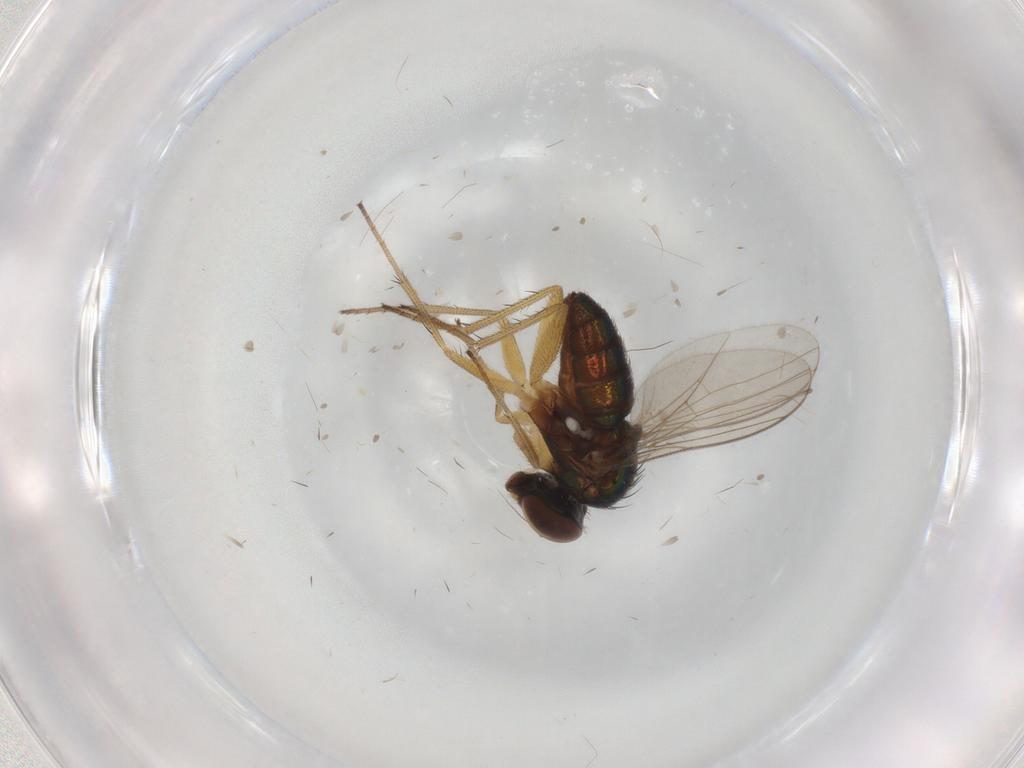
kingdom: Animalia
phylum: Arthropoda
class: Insecta
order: Diptera
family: Dolichopodidae
